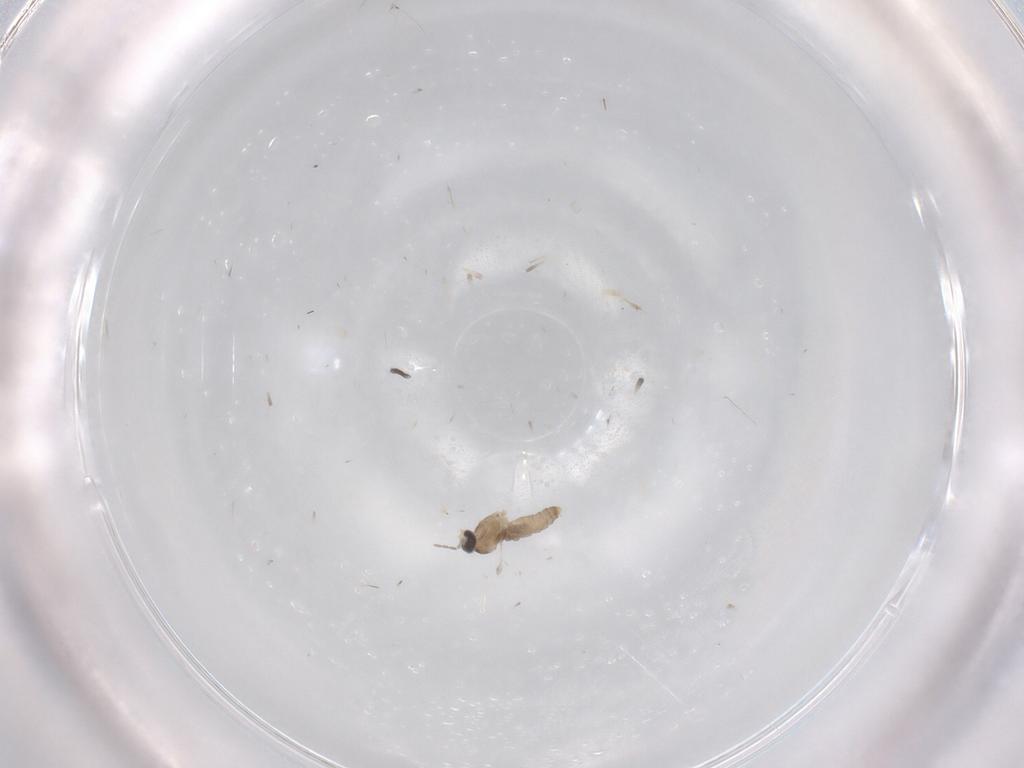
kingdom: Animalia
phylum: Arthropoda
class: Insecta
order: Diptera
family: Cecidomyiidae
